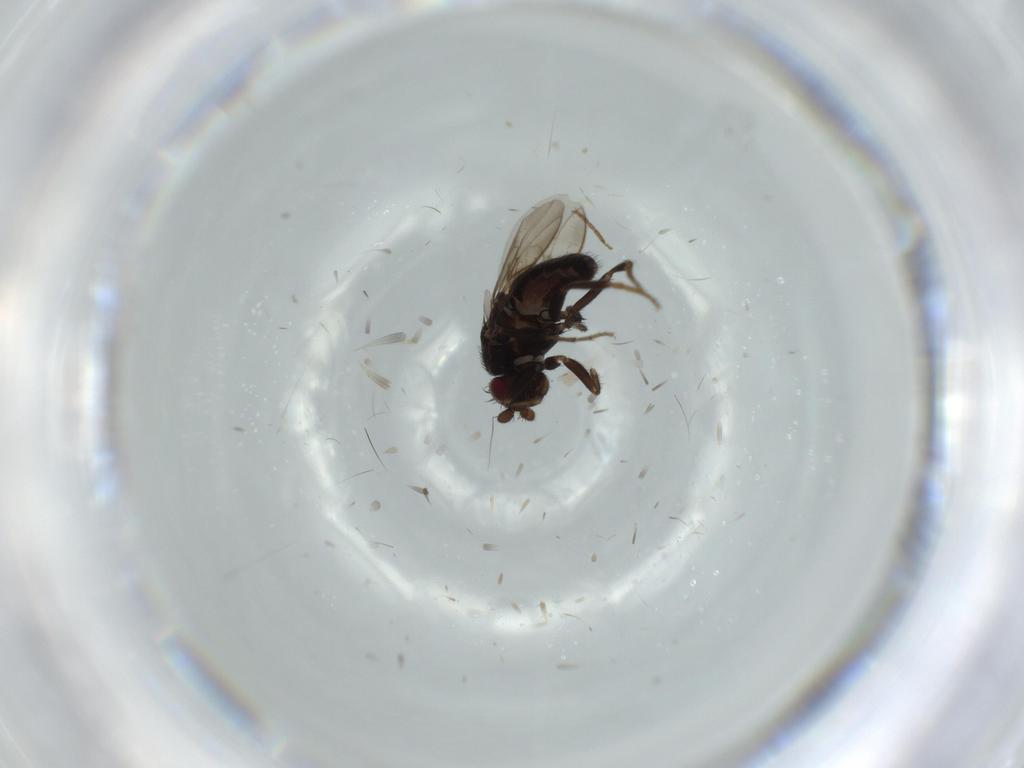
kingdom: Animalia
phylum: Arthropoda
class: Insecta
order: Diptera
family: Sphaeroceridae
